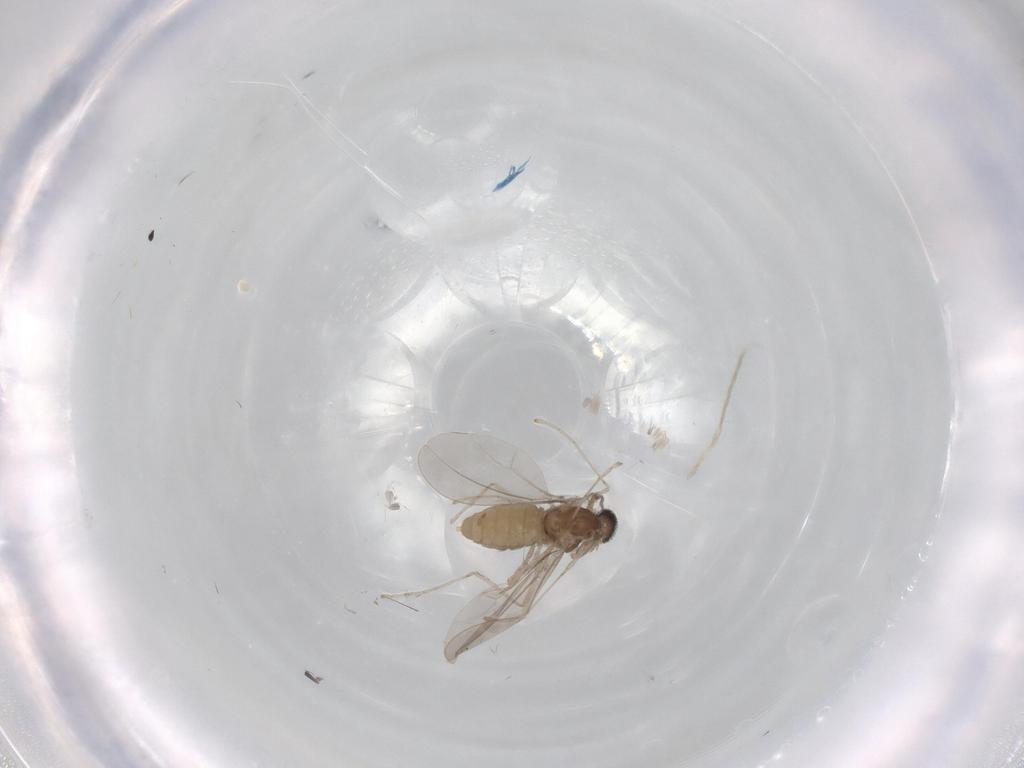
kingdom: Animalia
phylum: Arthropoda
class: Insecta
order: Diptera
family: Cecidomyiidae
